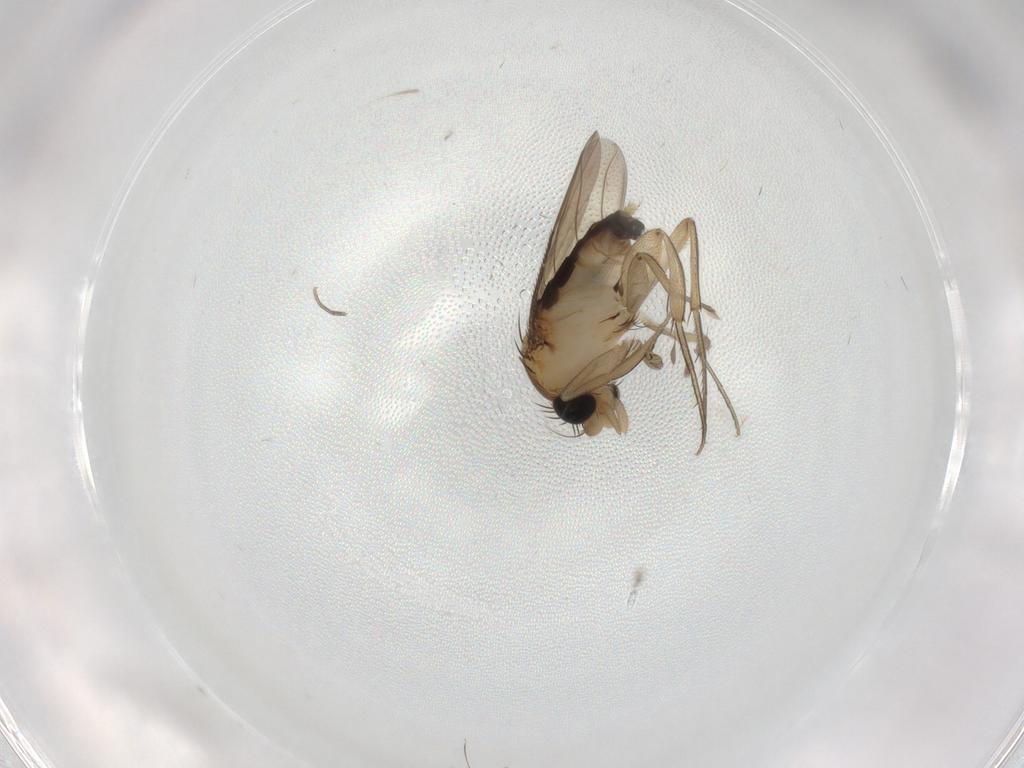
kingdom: Animalia
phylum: Arthropoda
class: Insecta
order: Diptera
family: Phoridae
